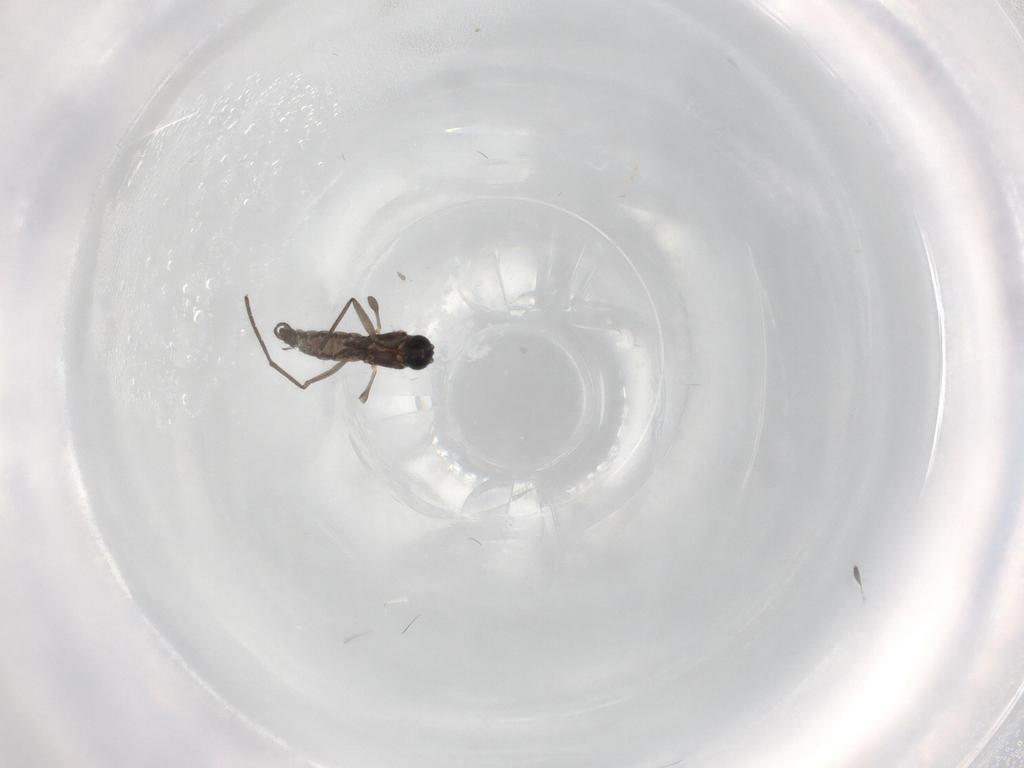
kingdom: Animalia
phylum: Arthropoda
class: Insecta
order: Diptera
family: Sciaridae
